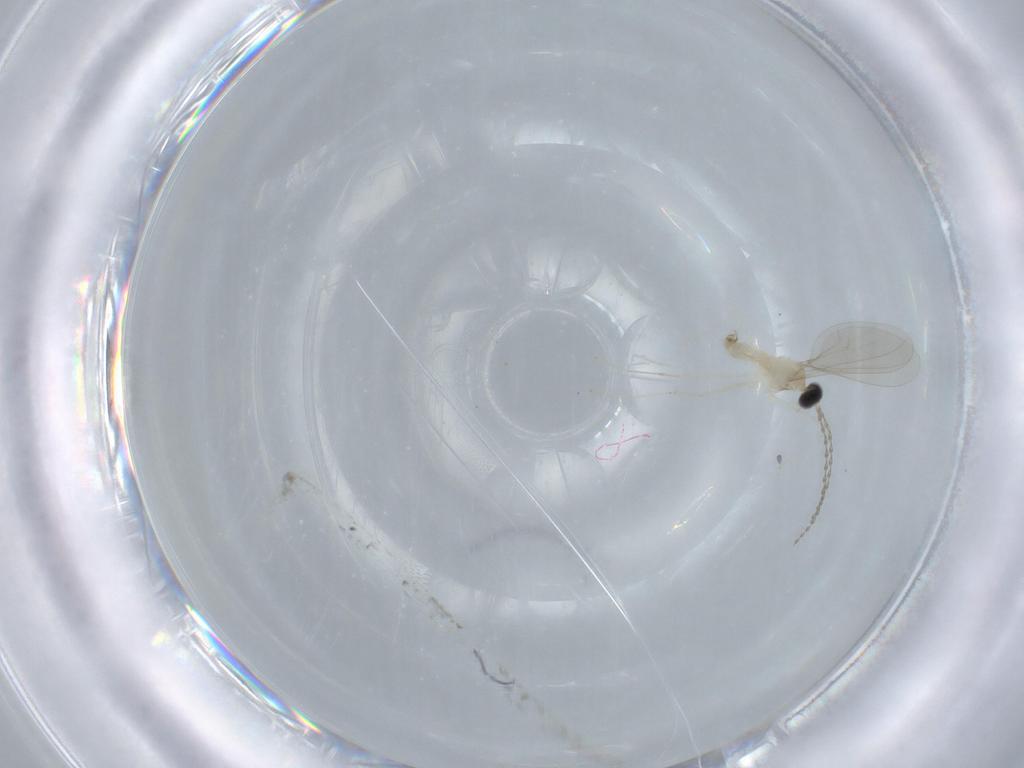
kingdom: Animalia
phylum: Arthropoda
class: Insecta
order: Diptera
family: Cecidomyiidae
